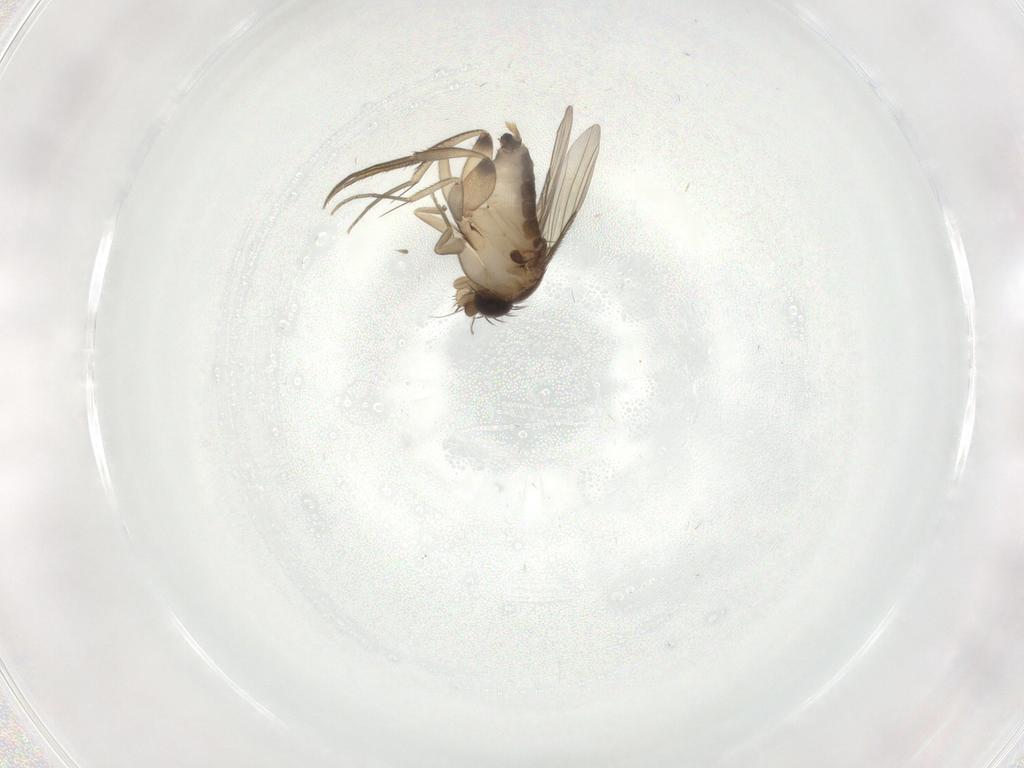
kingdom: Animalia
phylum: Arthropoda
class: Insecta
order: Diptera
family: Phoridae
